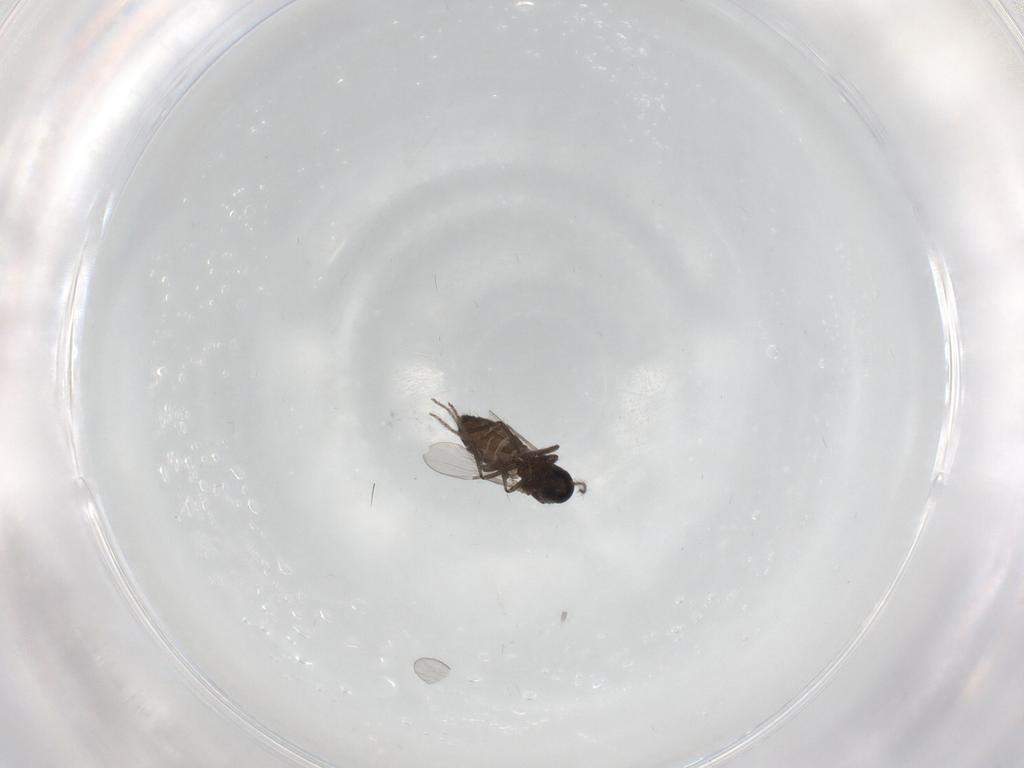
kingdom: Animalia
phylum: Arthropoda
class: Insecta
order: Diptera
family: Ceratopogonidae
